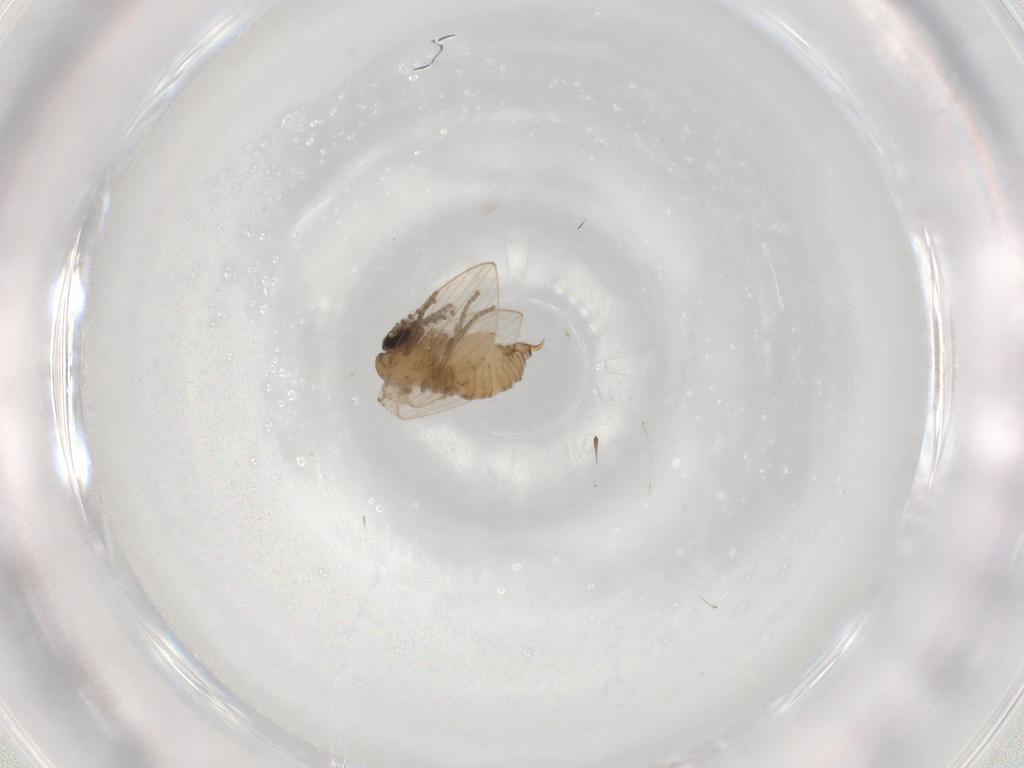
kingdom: Animalia
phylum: Arthropoda
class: Insecta
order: Diptera
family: Psychodidae
